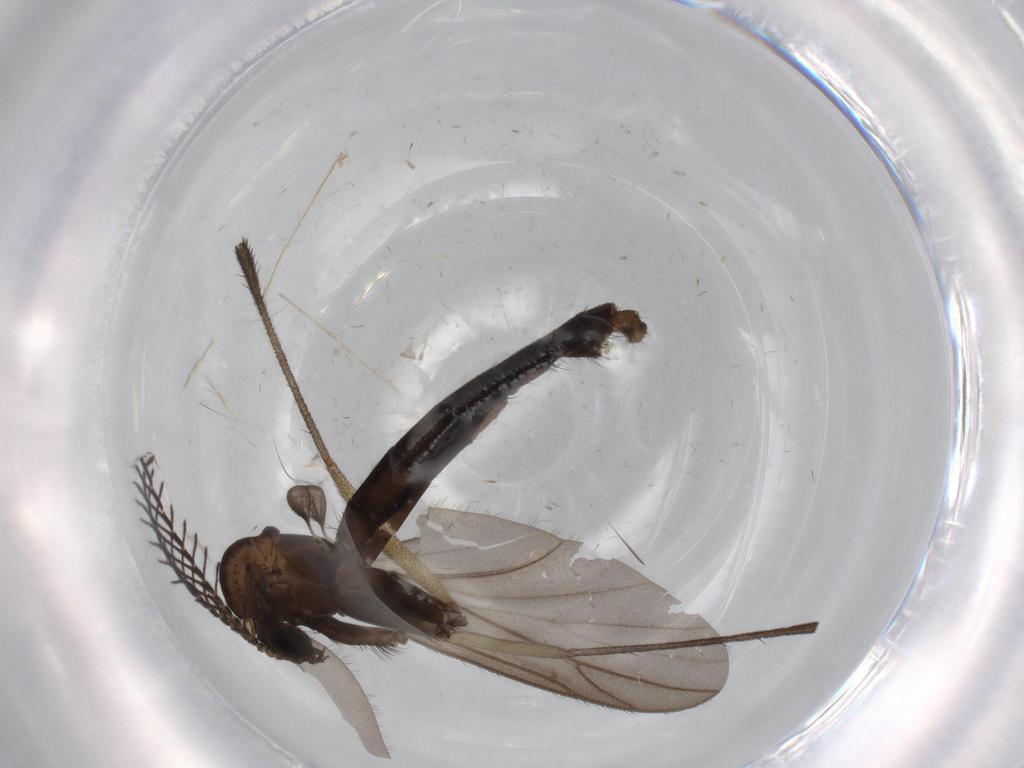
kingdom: Animalia
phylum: Arthropoda
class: Insecta
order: Diptera
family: Ditomyiidae
